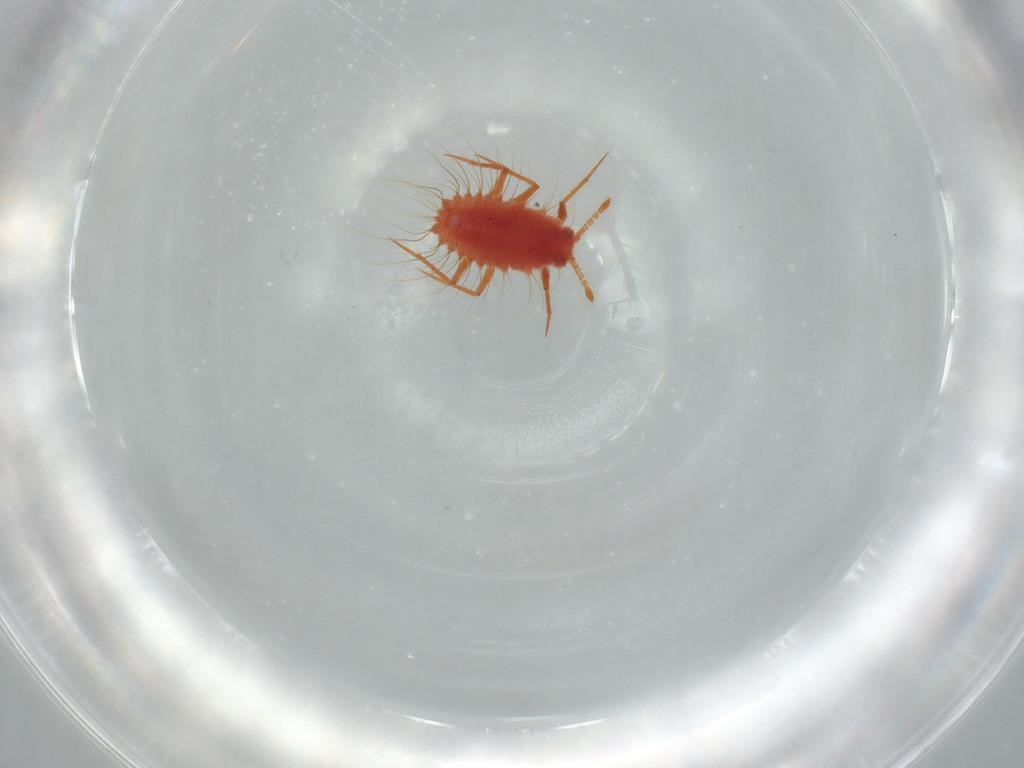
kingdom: Animalia
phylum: Arthropoda
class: Insecta
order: Hemiptera
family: Monophlebidae
